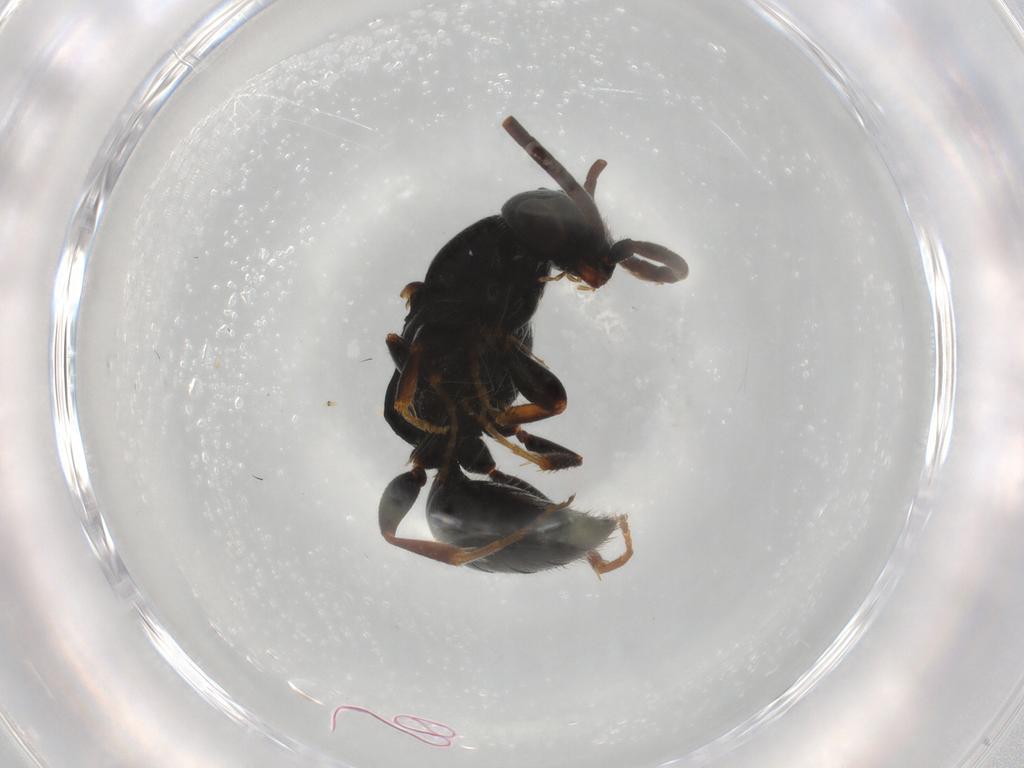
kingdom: Animalia
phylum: Arthropoda
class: Insecta
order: Hymenoptera
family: Bethylidae
